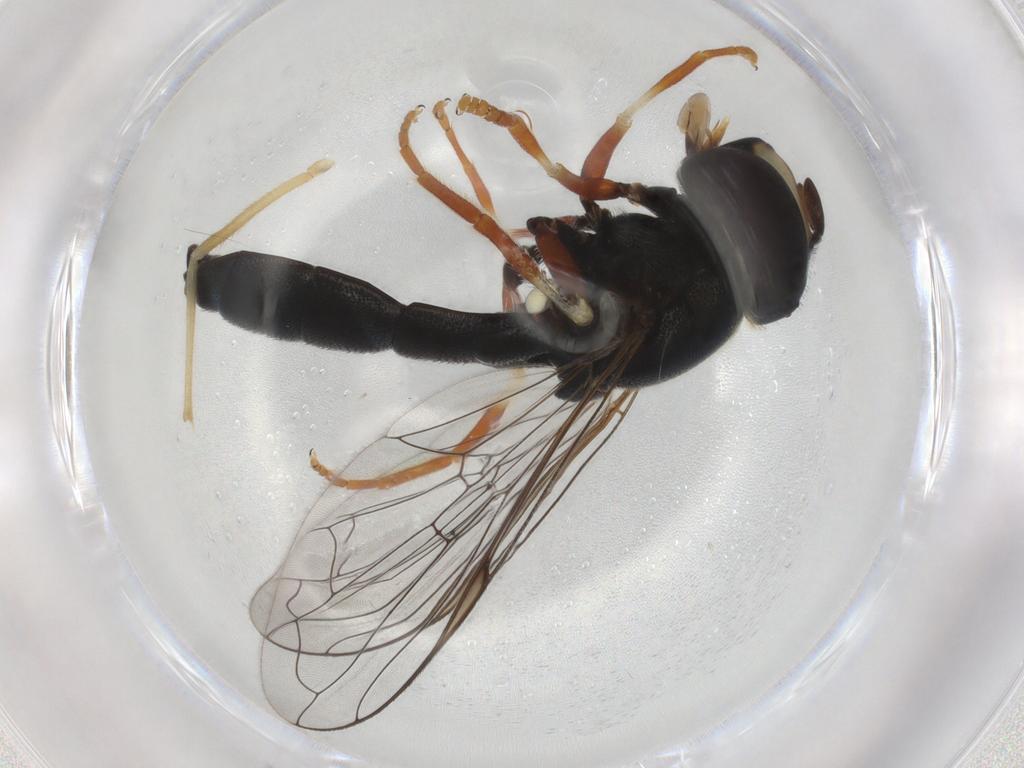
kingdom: Animalia
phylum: Arthropoda
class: Insecta
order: Diptera
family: Syrphidae
